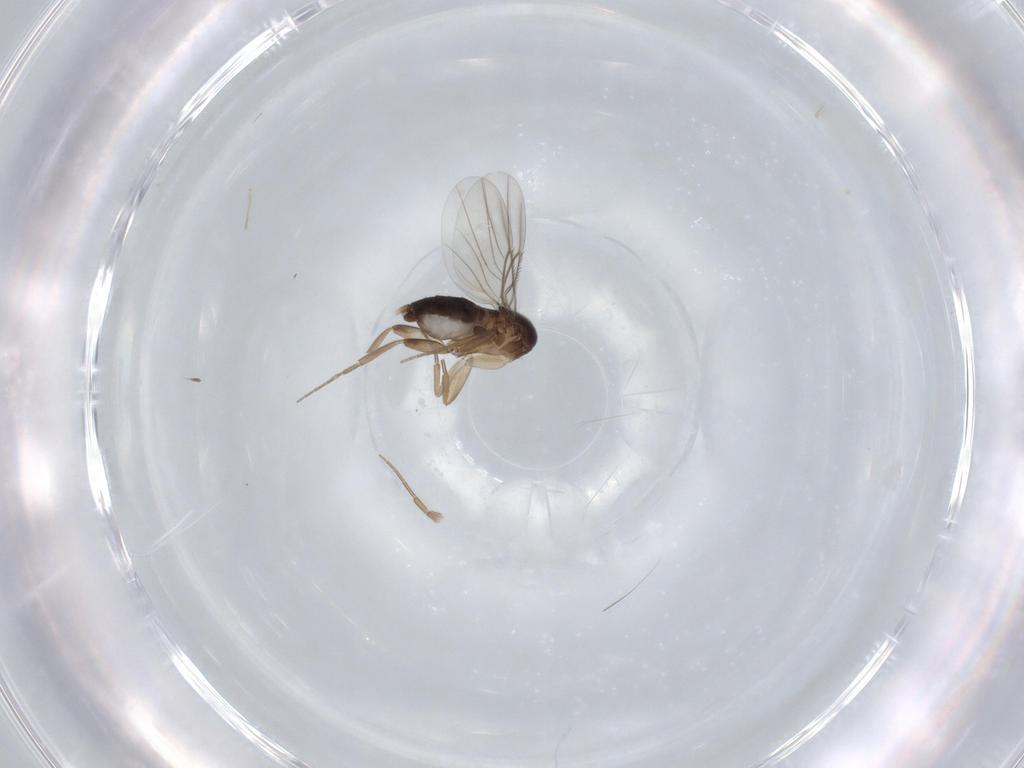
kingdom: Animalia
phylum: Arthropoda
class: Insecta
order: Diptera
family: Phoridae
